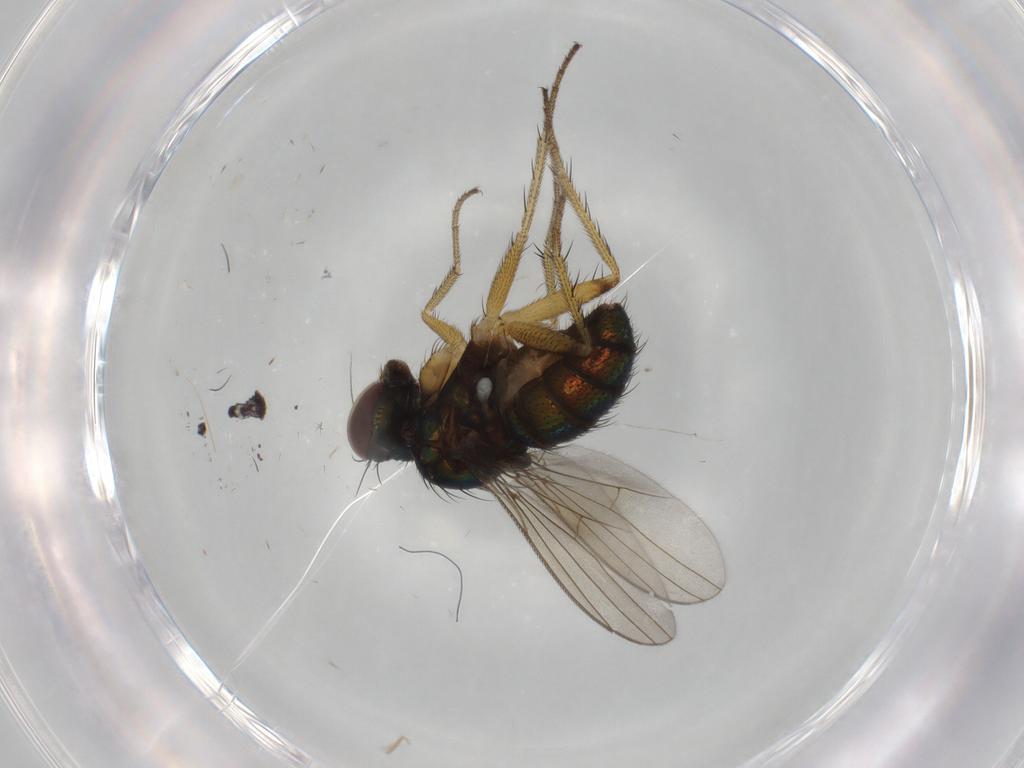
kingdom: Animalia
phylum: Arthropoda
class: Insecta
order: Diptera
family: Dolichopodidae
